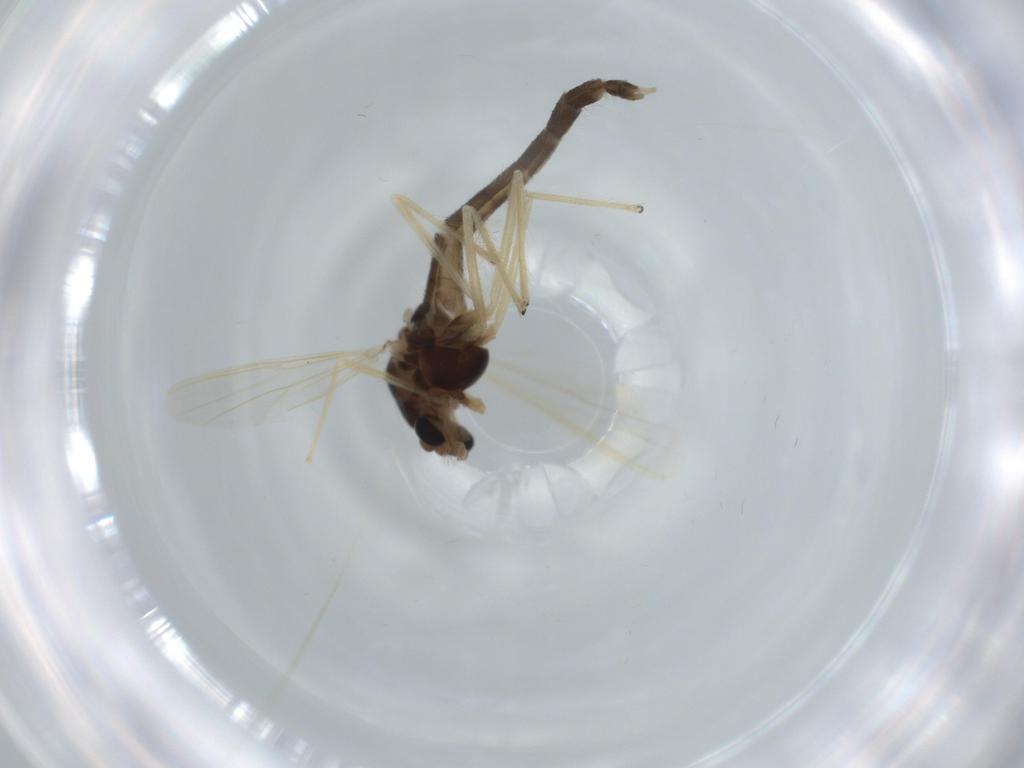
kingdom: Animalia
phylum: Arthropoda
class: Insecta
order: Diptera
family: Chironomidae
